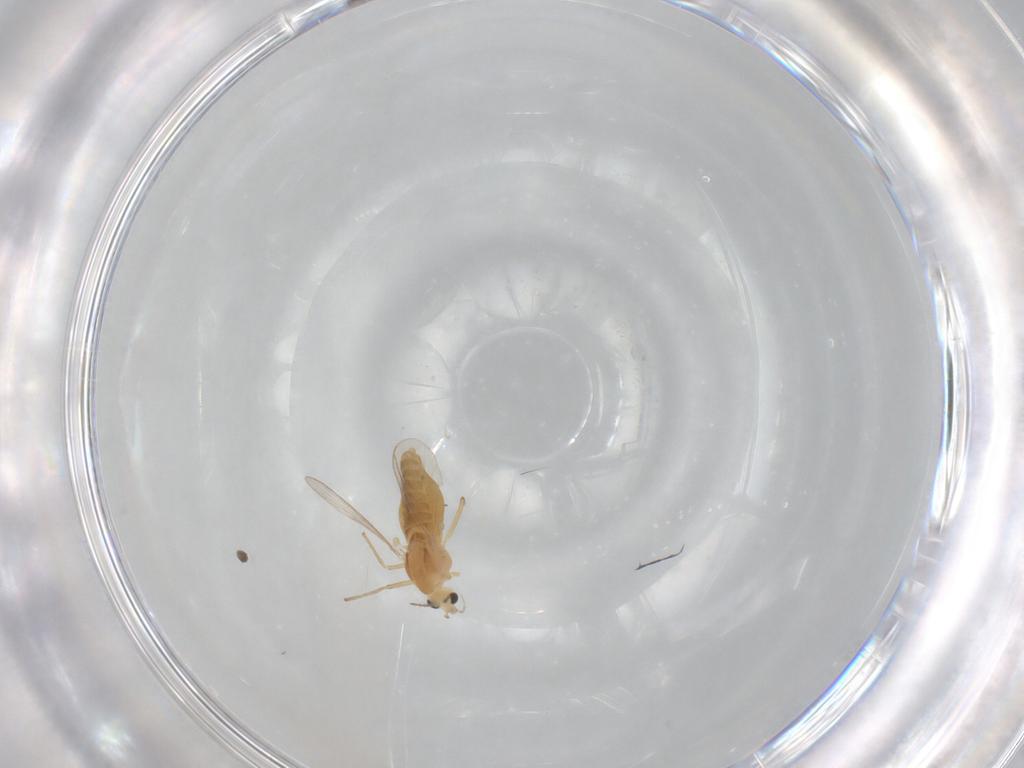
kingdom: Animalia
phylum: Arthropoda
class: Insecta
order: Diptera
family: Chironomidae
